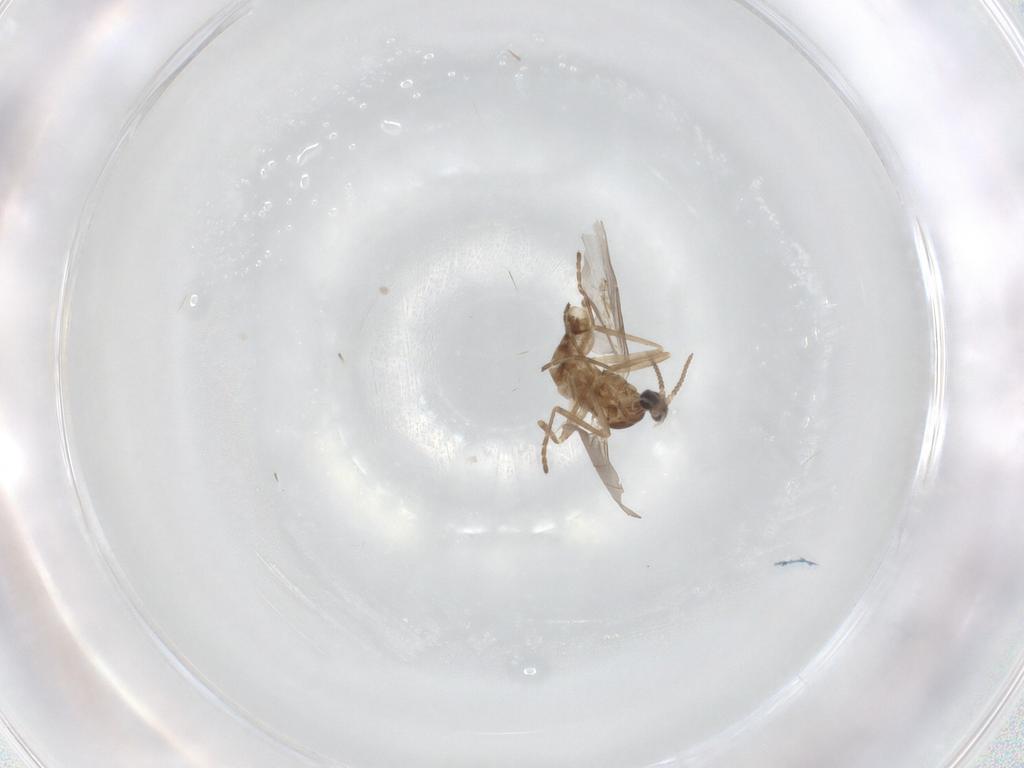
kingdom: Animalia
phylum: Arthropoda
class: Insecta
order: Diptera
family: Cecidomyiidae
